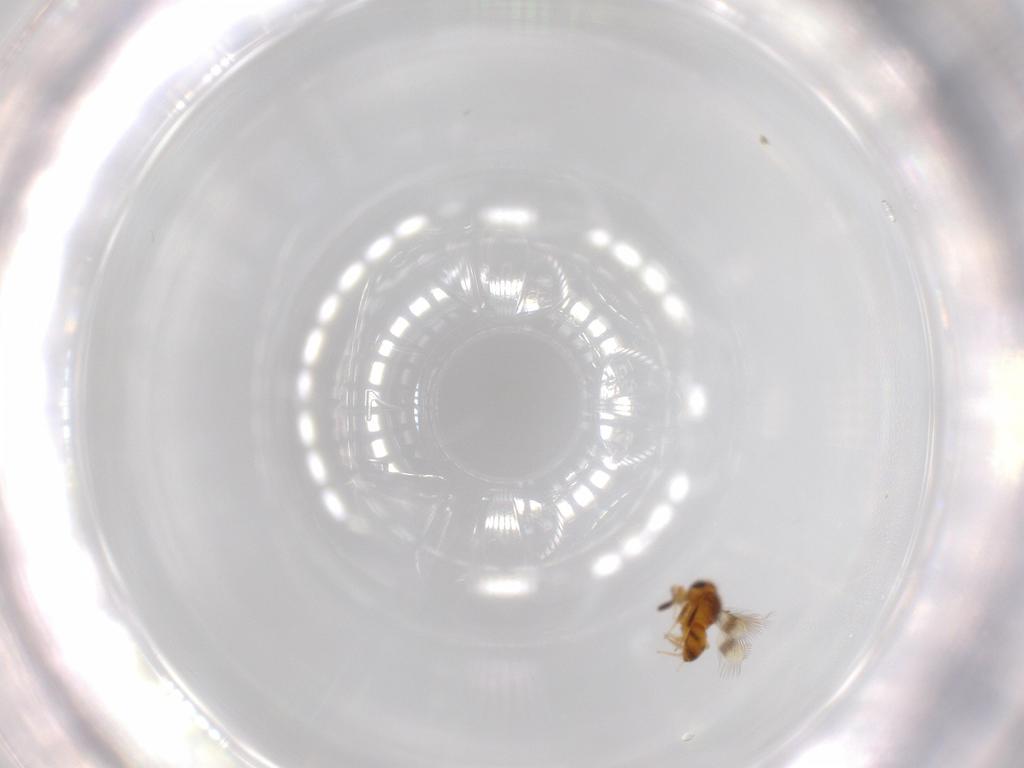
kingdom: Animalia
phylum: Arthropoda
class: Insecta
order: Hymenoptera
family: Scelionidae
